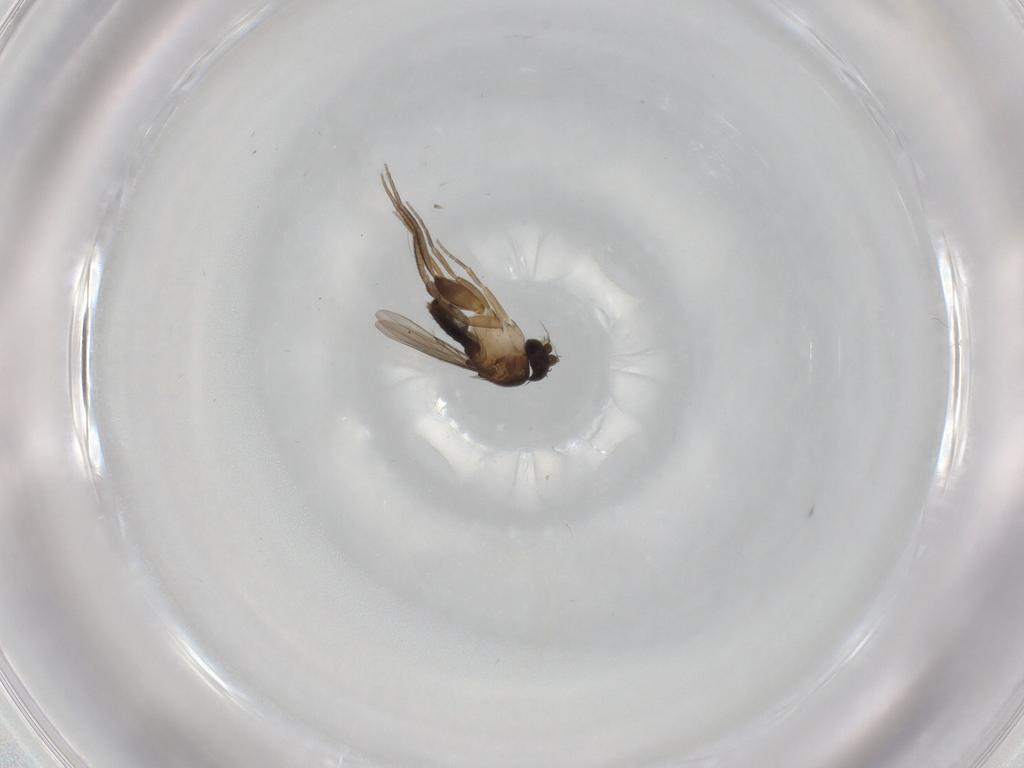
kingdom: Animalia
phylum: Arthropoda
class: Insecta
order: Diptera
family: Phoridae
